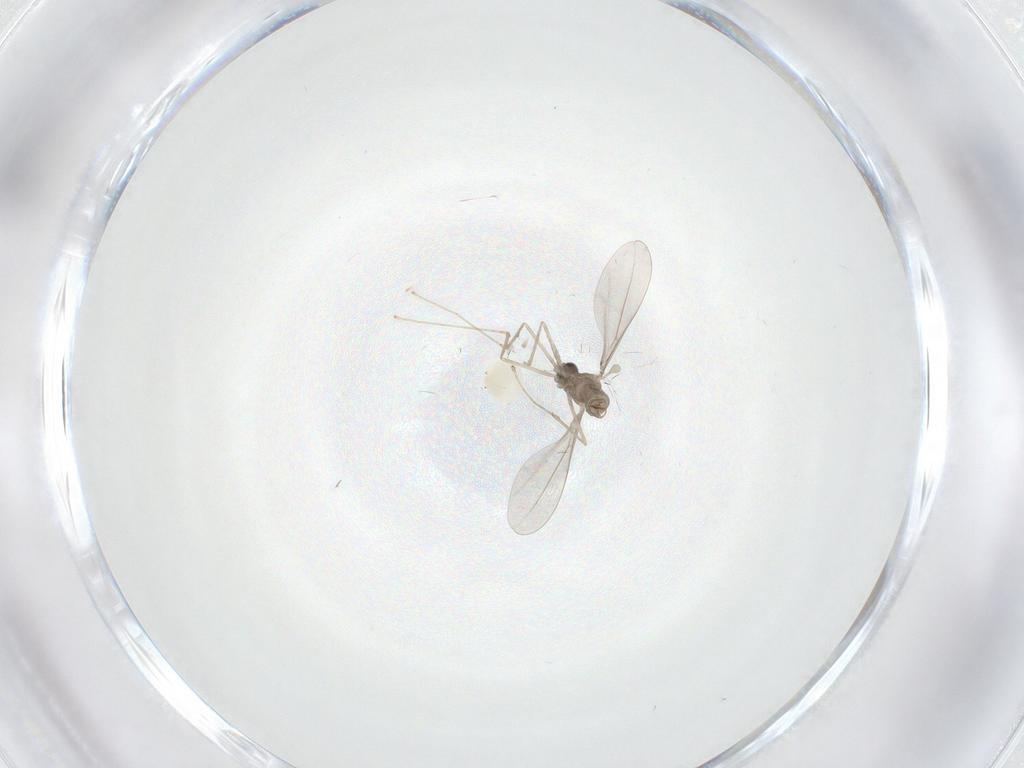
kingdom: Animalia
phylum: Arthropoda
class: Insecta
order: Diptera
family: Cecidomyiidae
